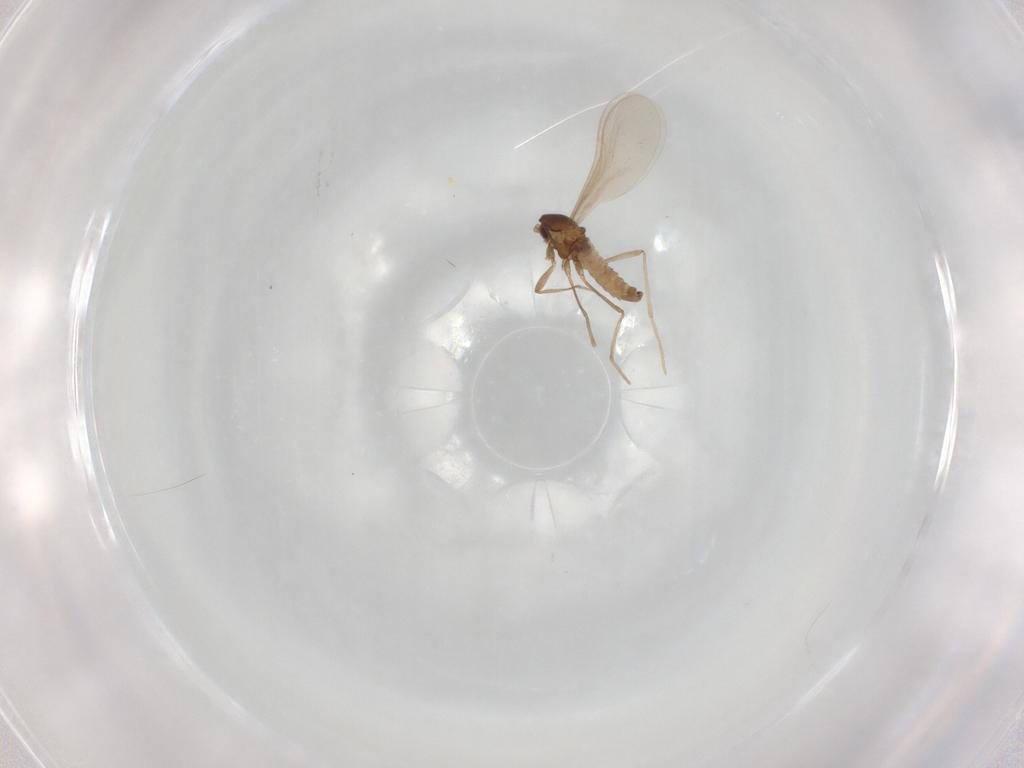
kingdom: Animalia
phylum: Arthropoda
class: Insecta
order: Diptera
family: Cecidomyiidae
